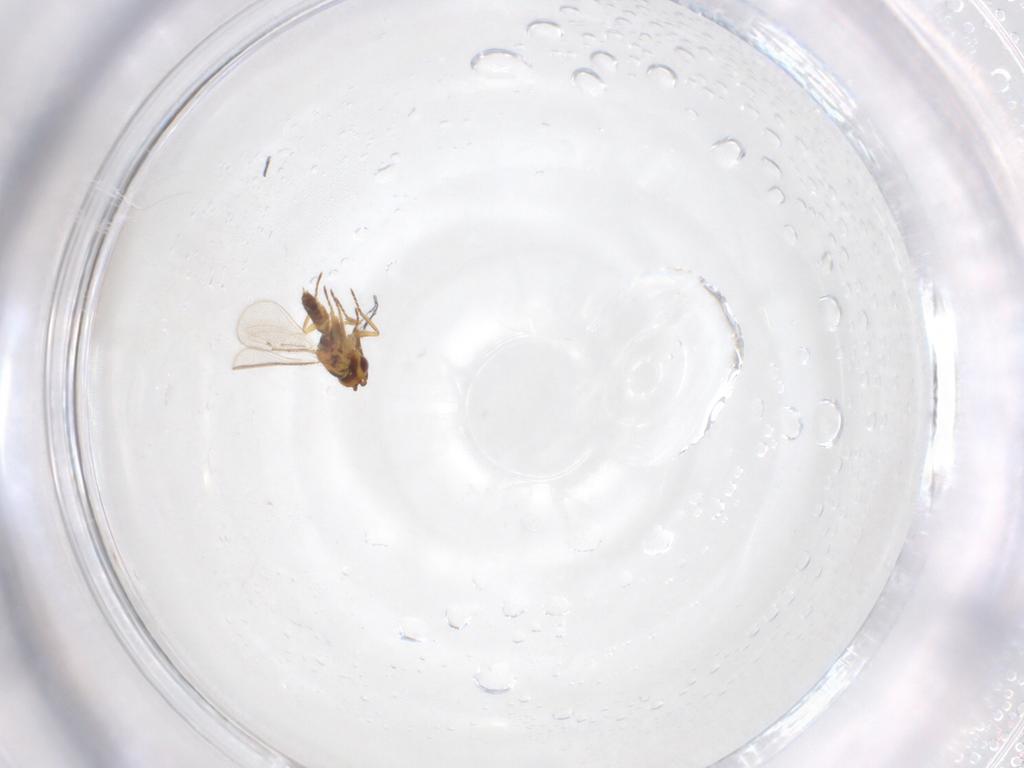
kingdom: Animalia
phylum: Arthropoda
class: Insecta
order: Hymenoptera
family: Eulophidae
